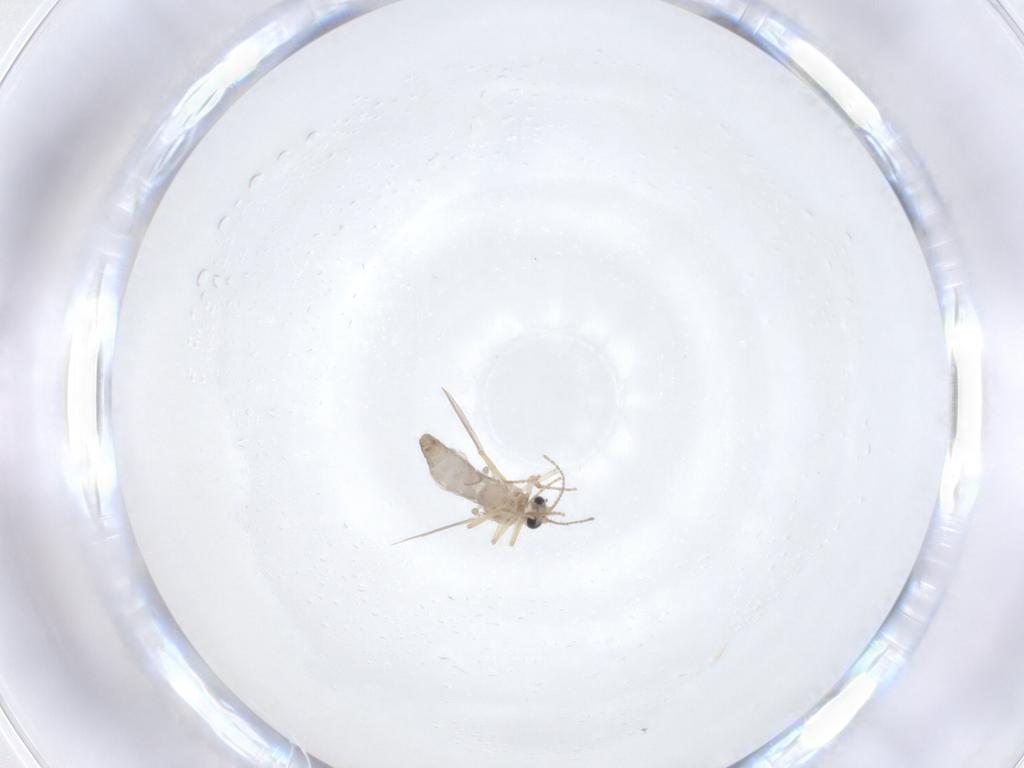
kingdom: Animalia
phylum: Arthropoda
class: Insecta
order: Diptera
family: Ceratopogonidae
